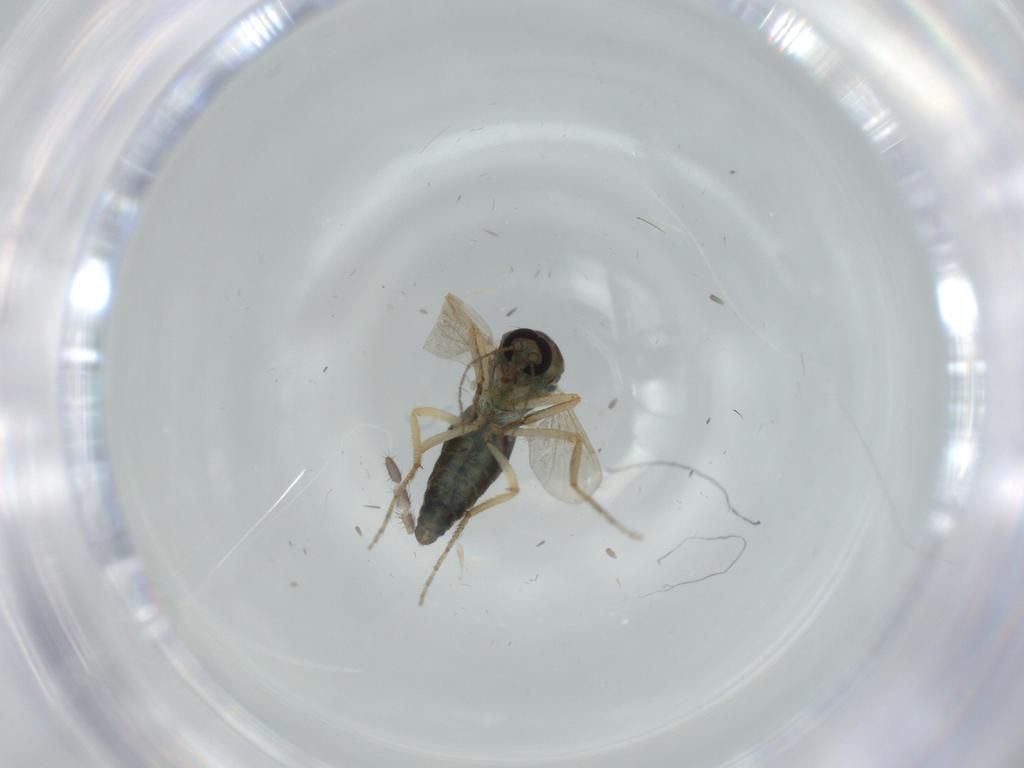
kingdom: Animalia
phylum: Arthropoda
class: Insecta
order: Diptera
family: Ceratopogonidae
